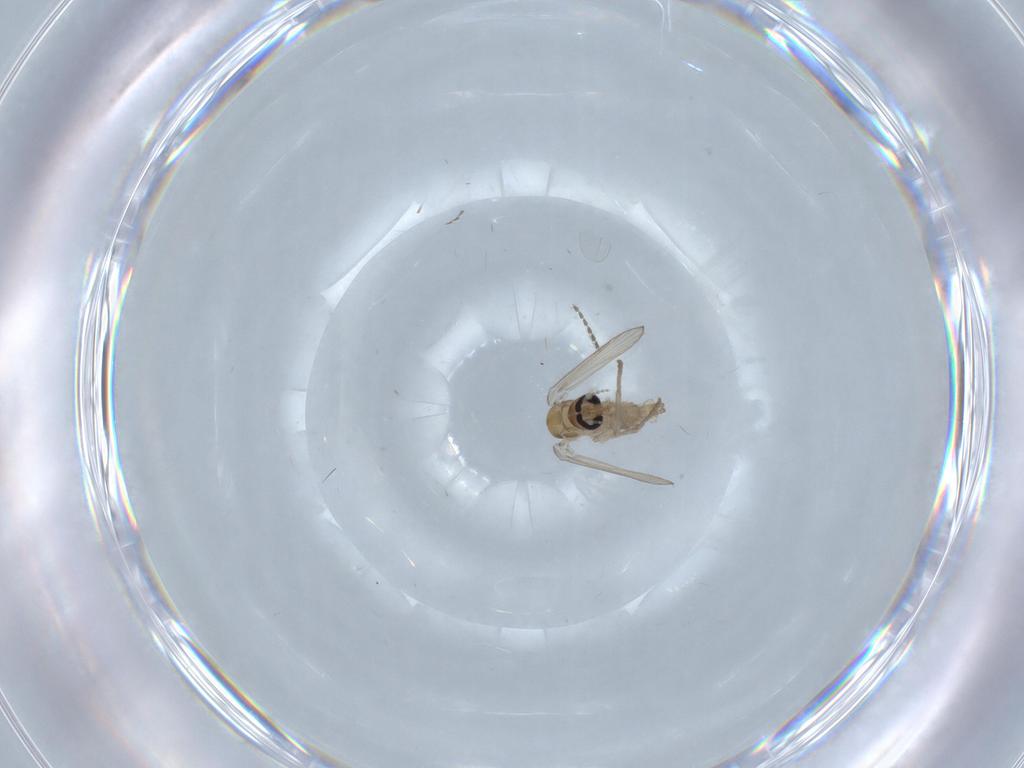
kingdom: Animalia
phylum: Arthropoda
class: Insecta
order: Diptera
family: Psychodidae
